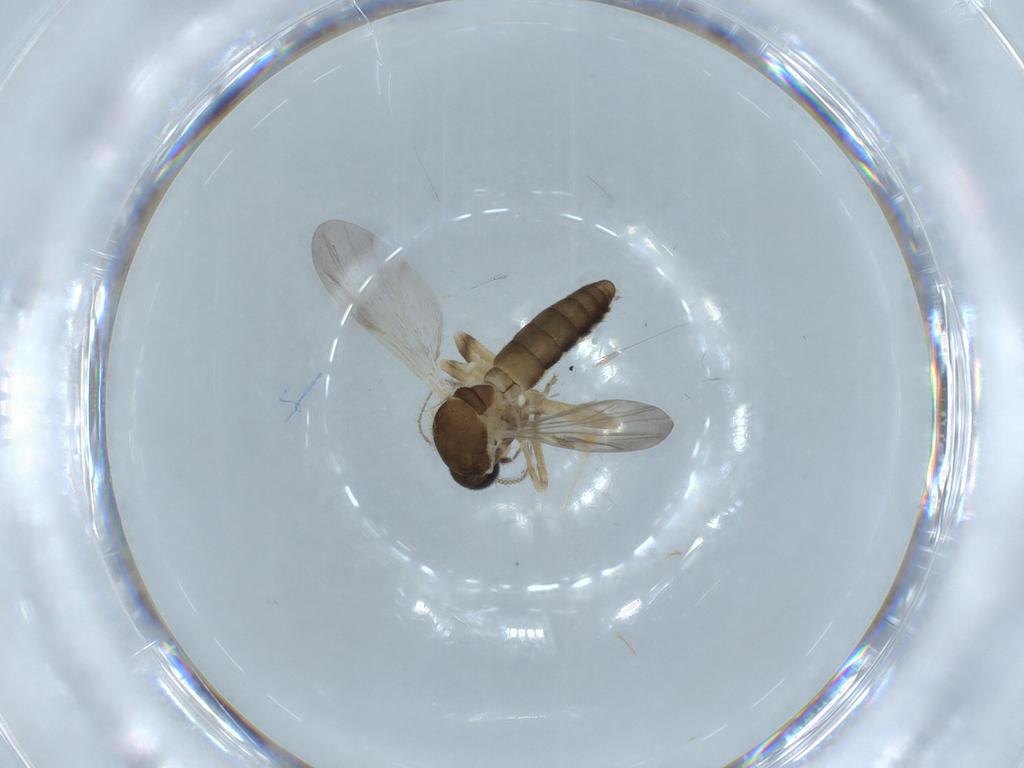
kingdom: Animalia
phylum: Arthropoda
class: Insecta
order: Diptera
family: Ceratopogonidae
